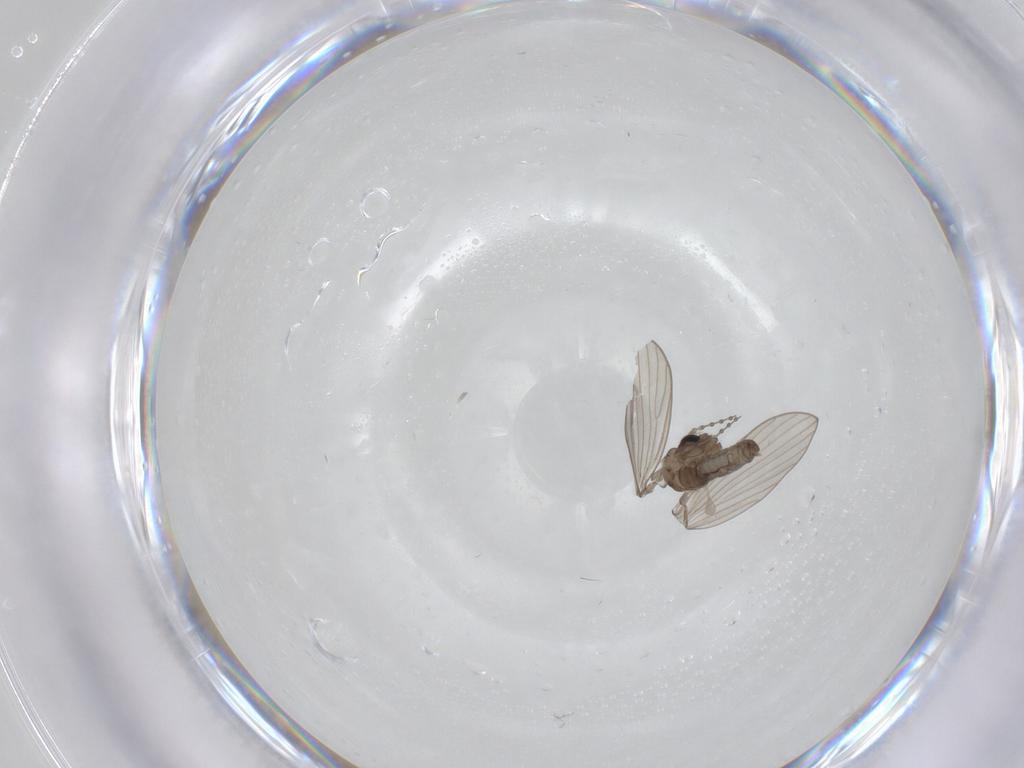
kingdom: Animalia
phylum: Arthropoda
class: Insecta
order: Diptera
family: Psychodidae
